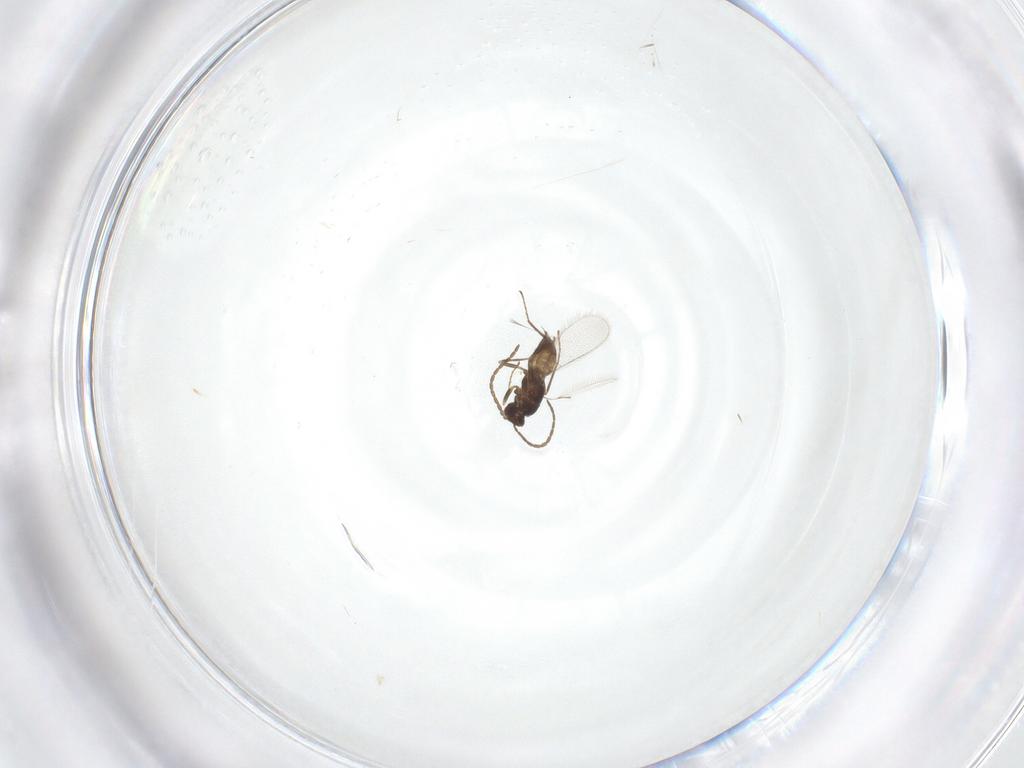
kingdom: Animalia
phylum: Arthropoda
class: Insecta
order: Hymenoptera
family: Mymaridae
